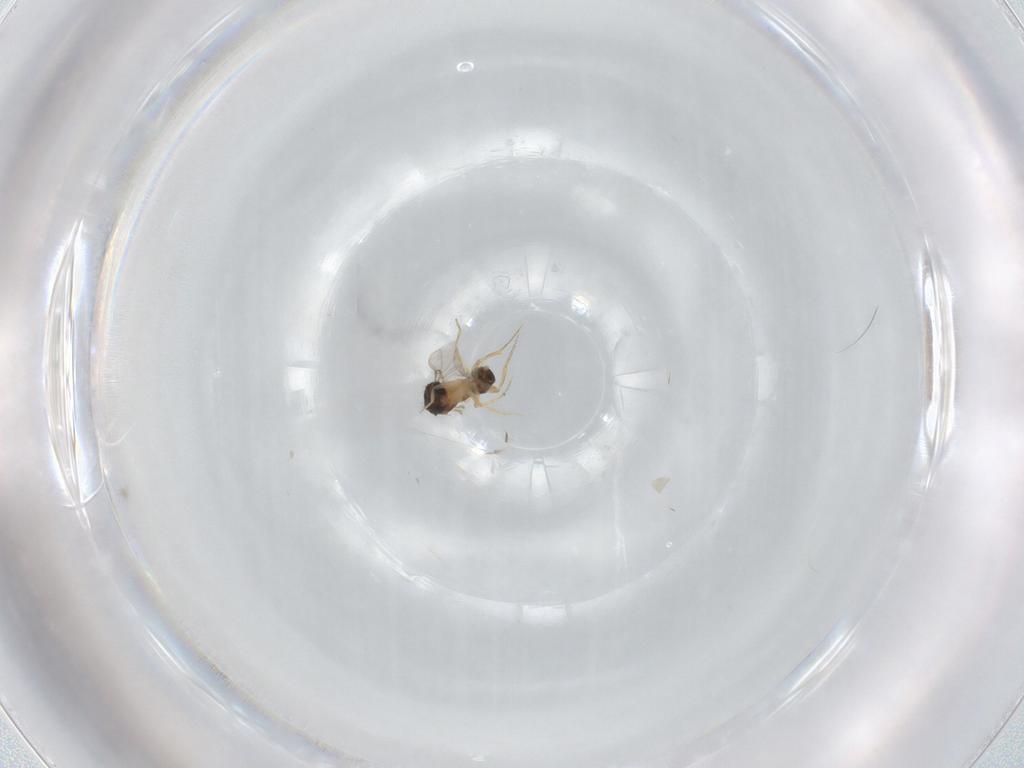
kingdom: Animalia
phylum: Arthropoda
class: Insecta
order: Diptera
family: Phoridae
